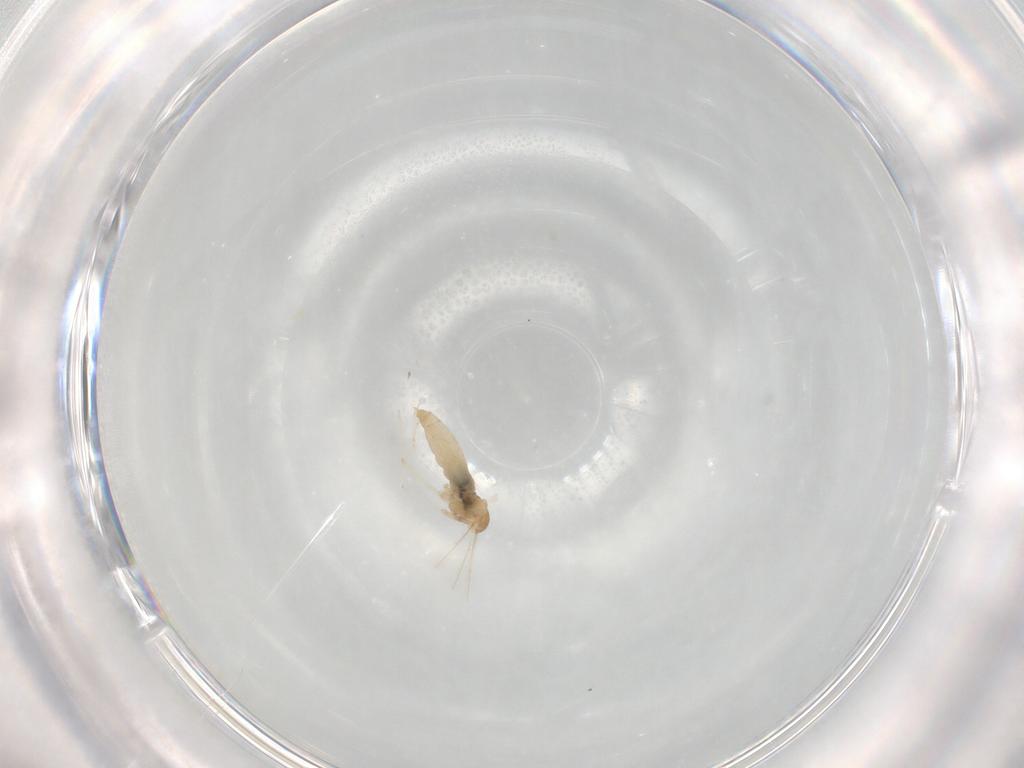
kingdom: Animalia
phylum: Arthropoda
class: Insecta
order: Diptera
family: Cecidomyiidae
